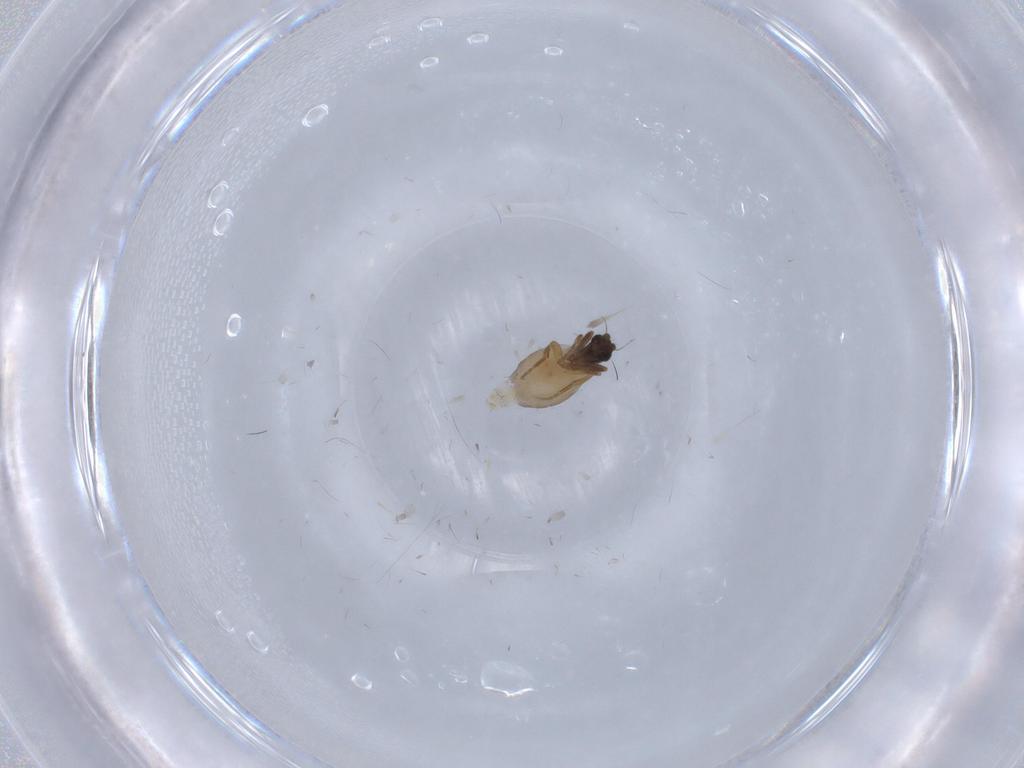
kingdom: Animalia
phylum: Arthropoda
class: Insecta
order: Diptera
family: Phoridae
